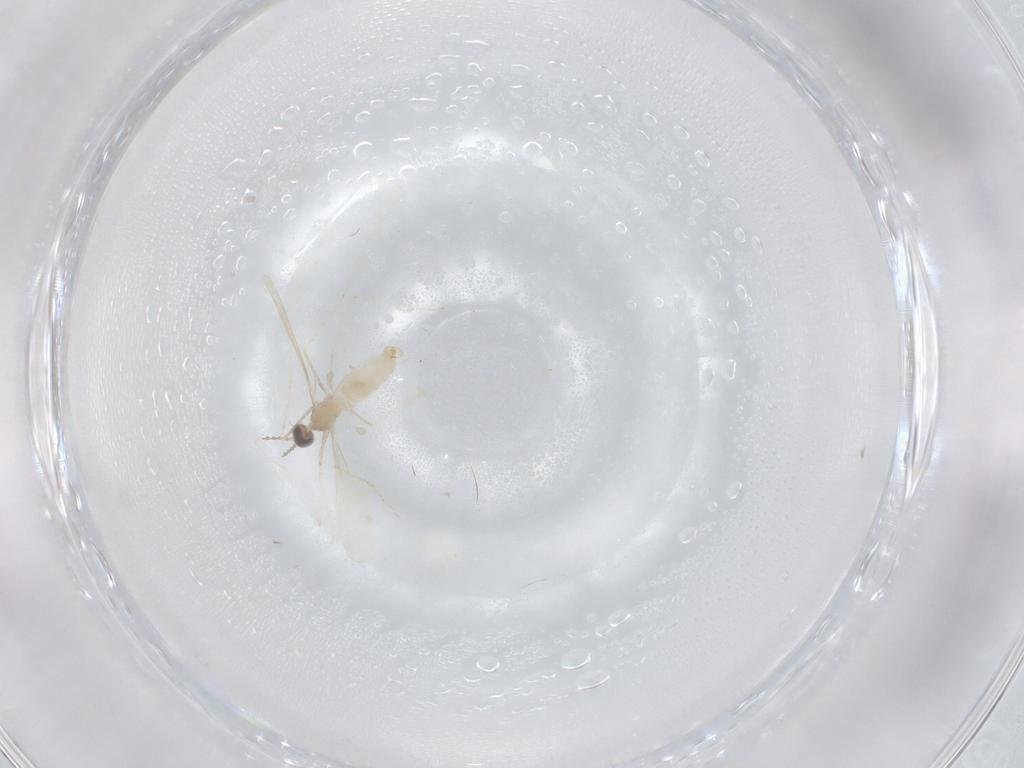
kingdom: Animalia
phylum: Arthropoda
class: Insecta
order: Diptera
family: Cecidomyiidae
